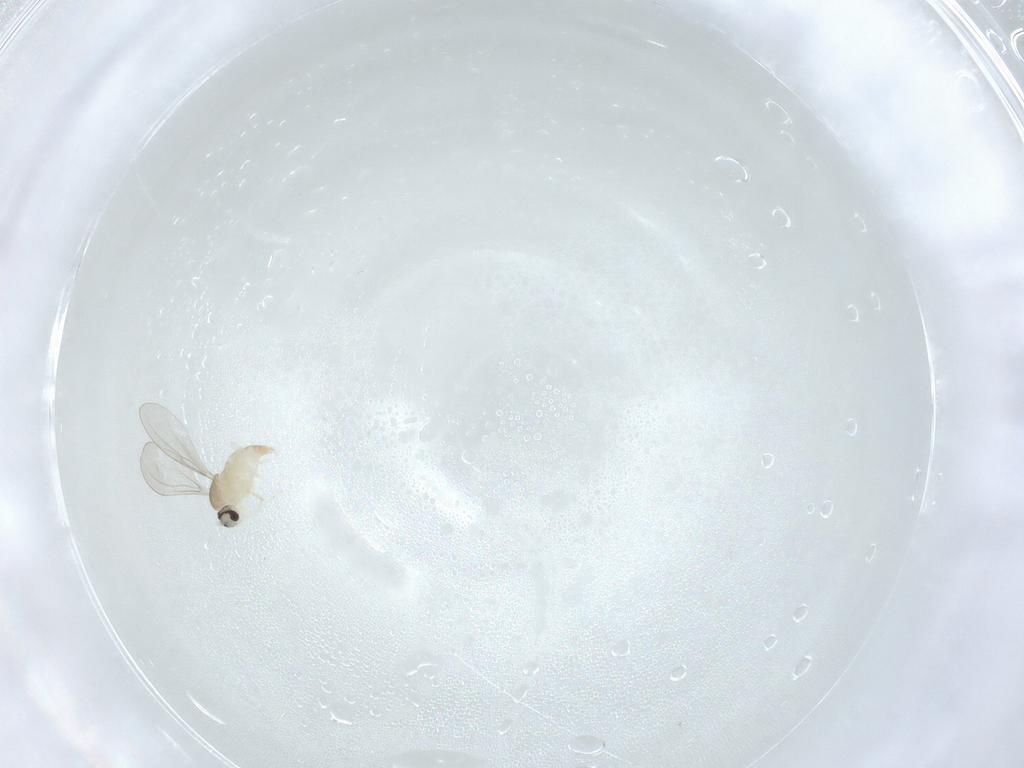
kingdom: Animalia
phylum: Arthropoda
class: Insecta
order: Diptera
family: Cecidomyiidae
